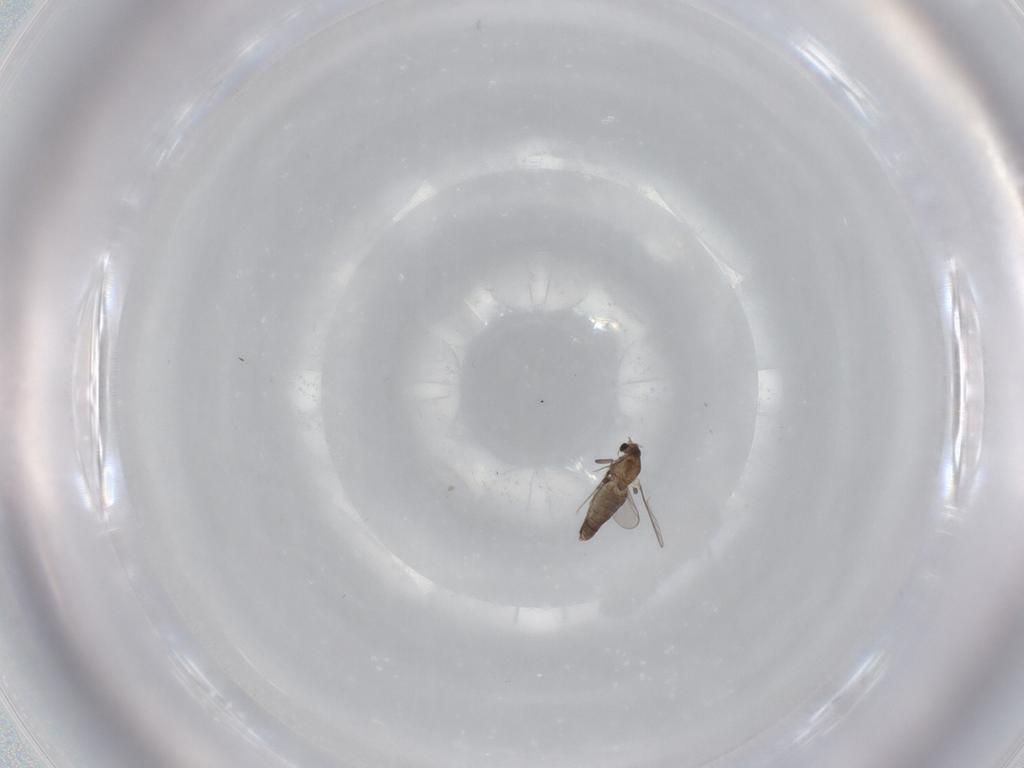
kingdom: Animalia
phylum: Arthropoda
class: Insecta
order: Diptera
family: Chironomidae
